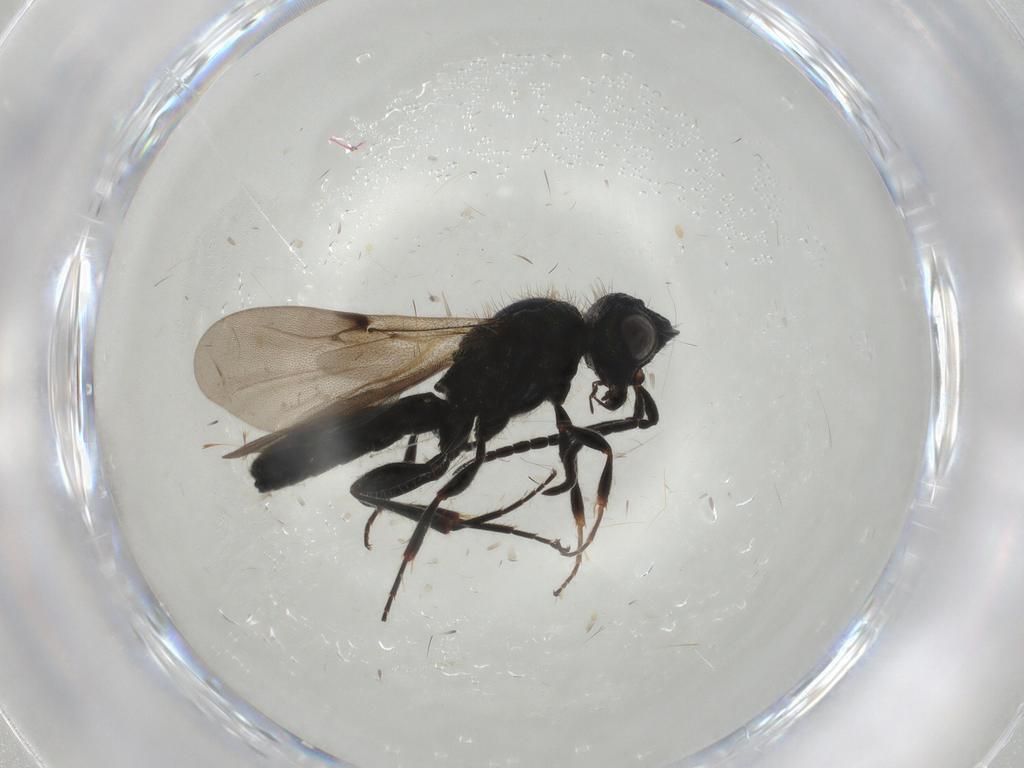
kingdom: Animalia
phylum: Arthropoda
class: Insecta
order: Hymenoptera
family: Sparasionidae
